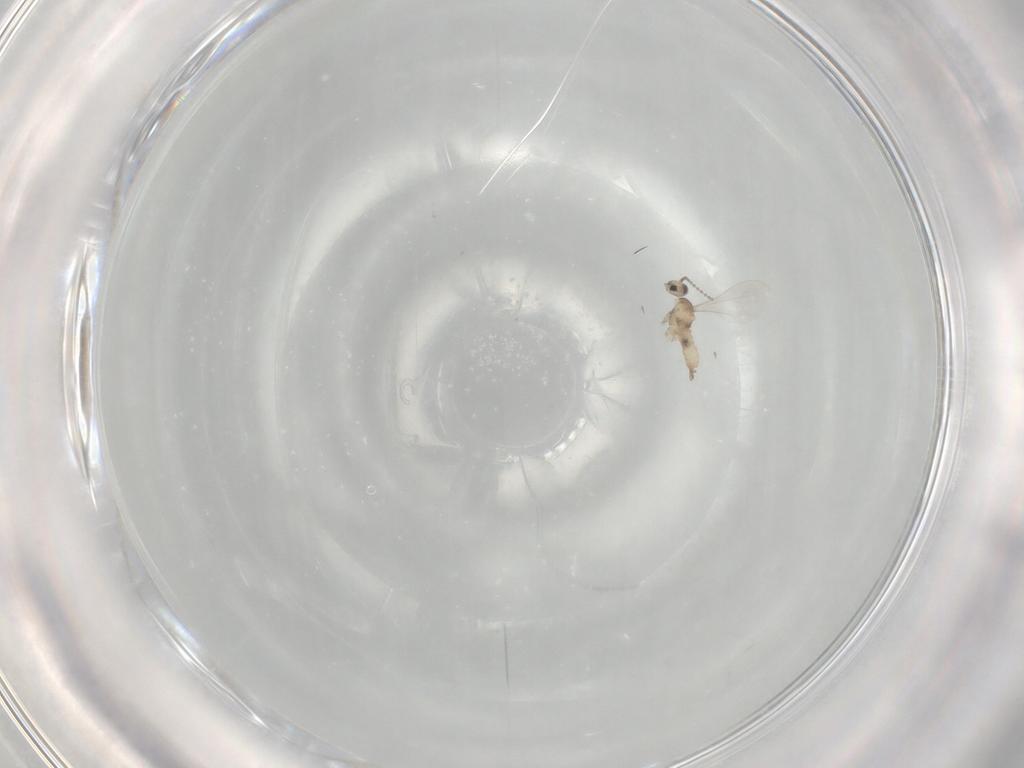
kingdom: Animalia
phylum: Arthropoda
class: Insecta
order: Diptera
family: Cecidomyiidae
